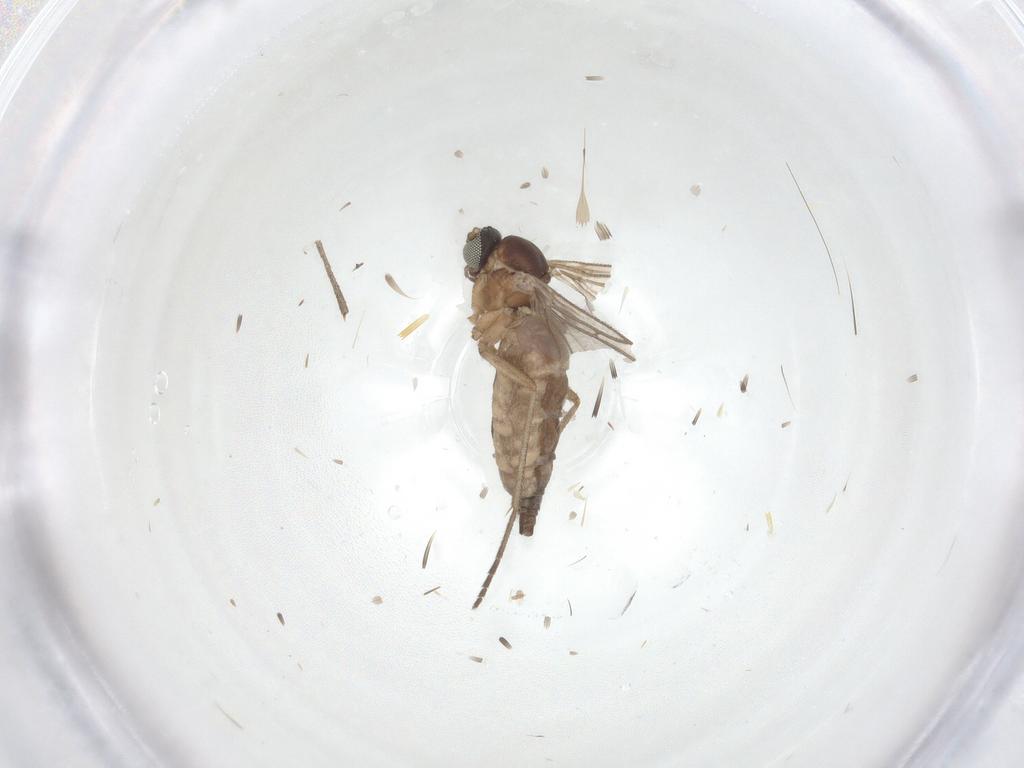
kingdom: Animalia
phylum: Arthropoda
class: Insecta
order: Diptera
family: Sciaridae
